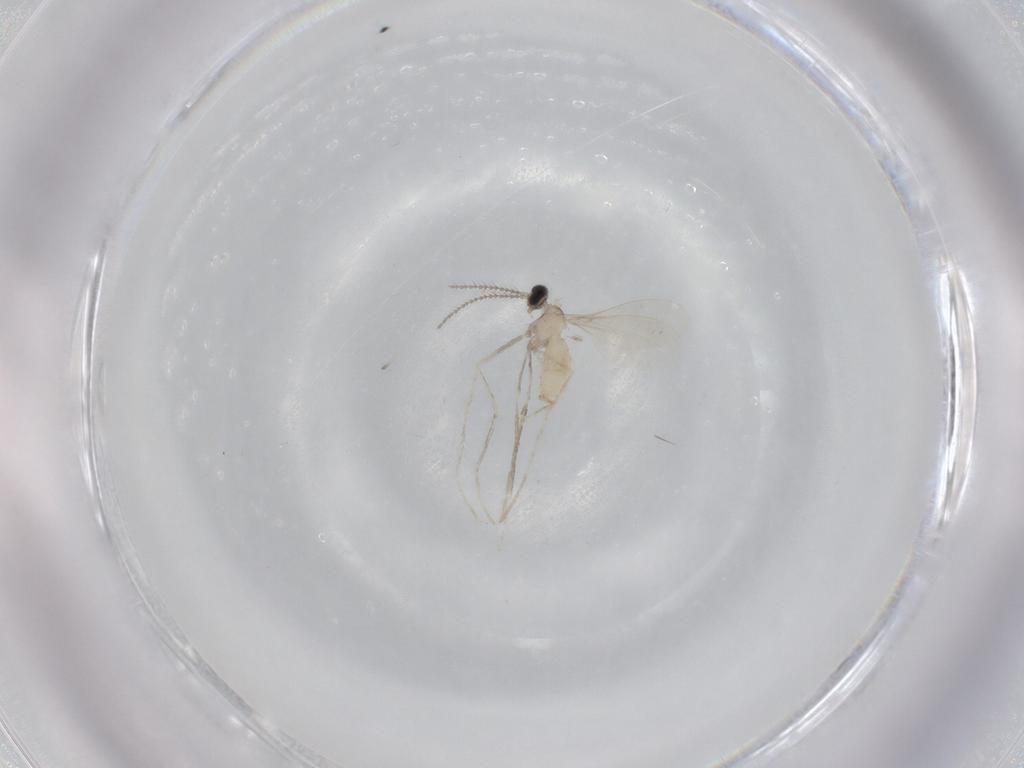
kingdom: Animalia
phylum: Arthropoda
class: Insecta
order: Diptera
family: Cecidomyiidae
